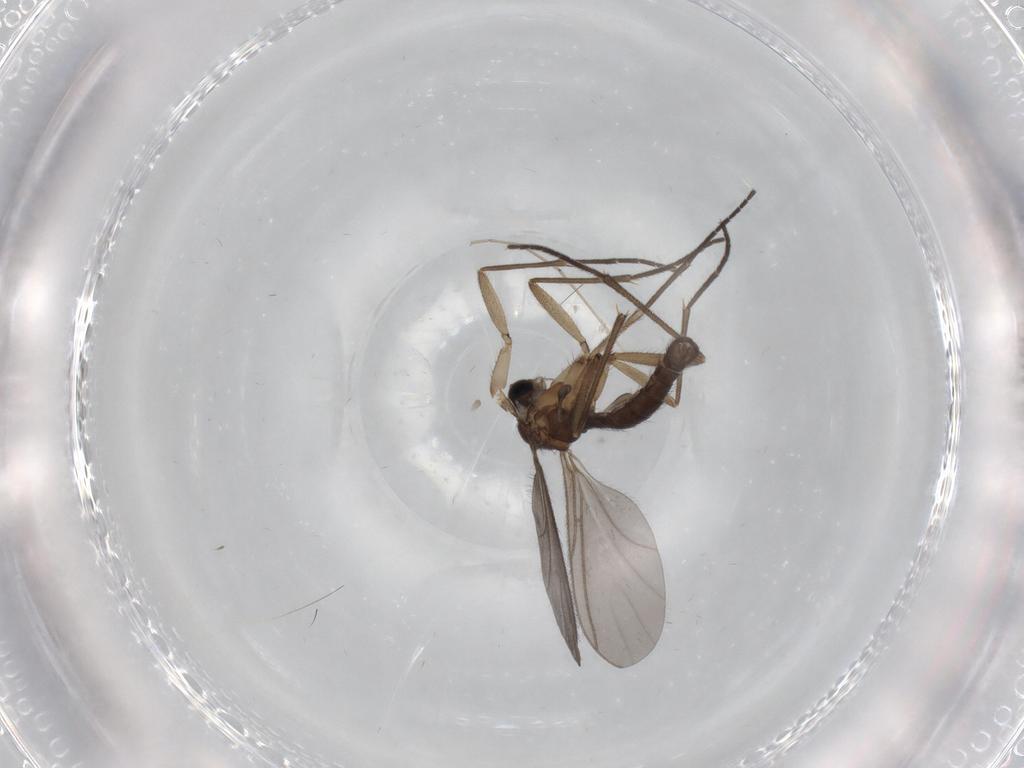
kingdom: Animalia
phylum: Arthropoda
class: Insecta
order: Diptera
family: Sciaridae
